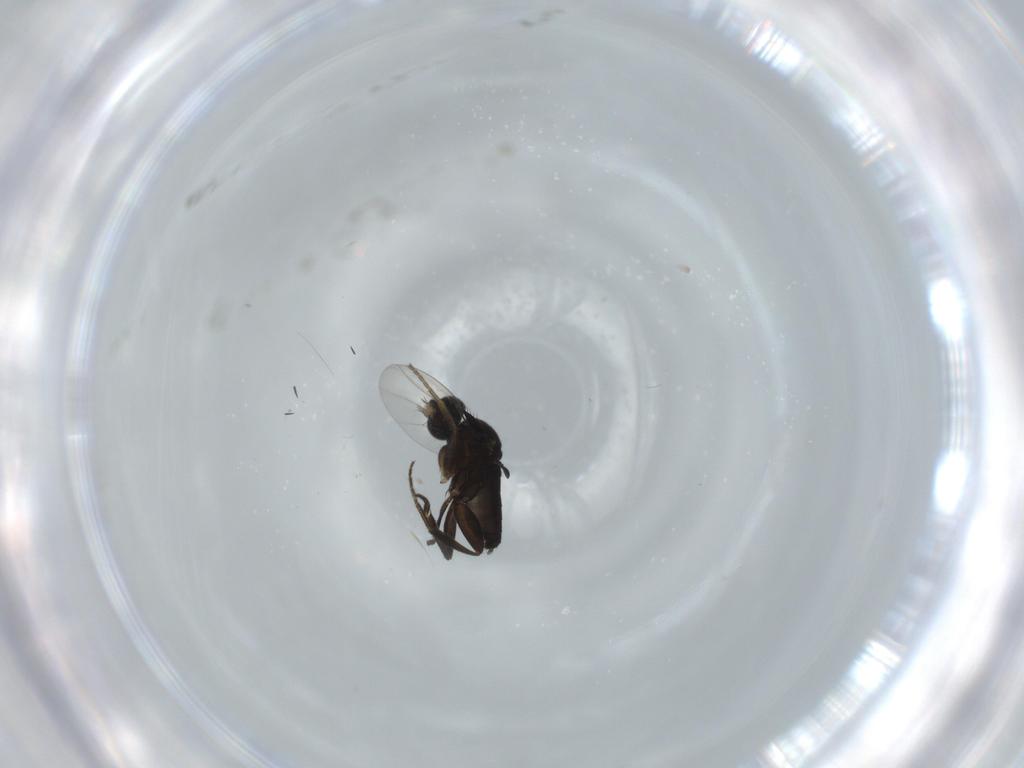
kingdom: Animalia
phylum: Arthropoda
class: Insecta
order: Diptera
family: Phoridae
